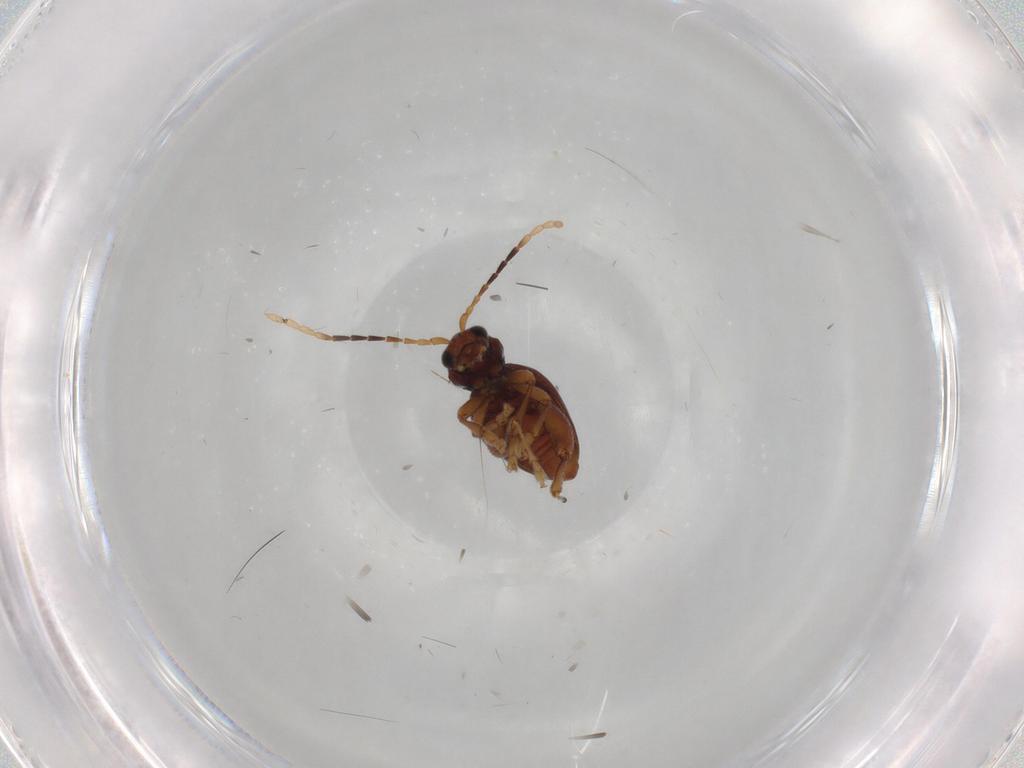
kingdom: Animalia
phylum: Arthropoda
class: Insecta
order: Coleoptera
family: Chrysomelidae
